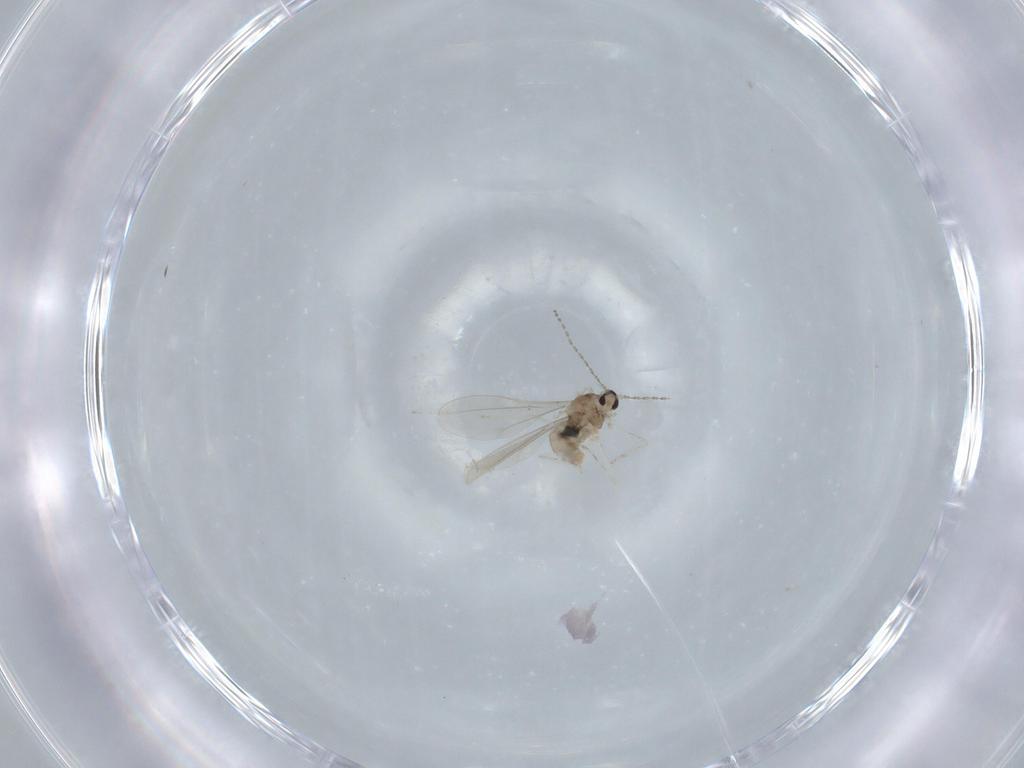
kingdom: Animalia
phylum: Arthropoda
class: Insecta
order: Diptera
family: Cecidomyiidae
